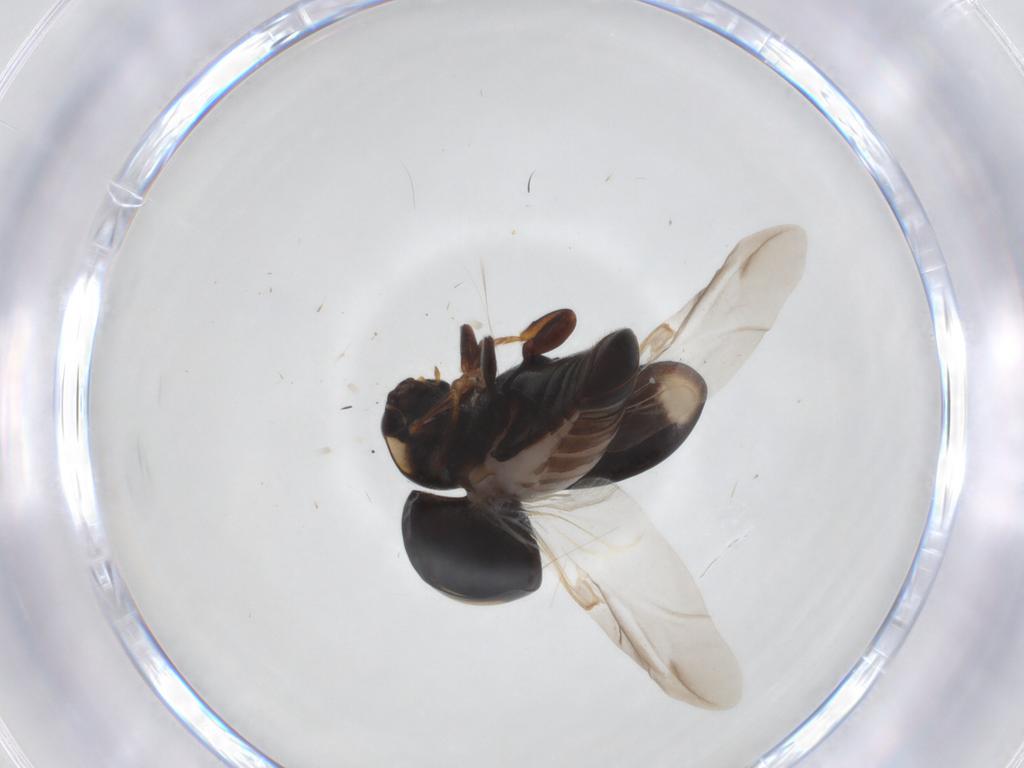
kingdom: Animalia
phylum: Arthropoda
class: Insecta
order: Coleoptera
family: Coccinellidae
